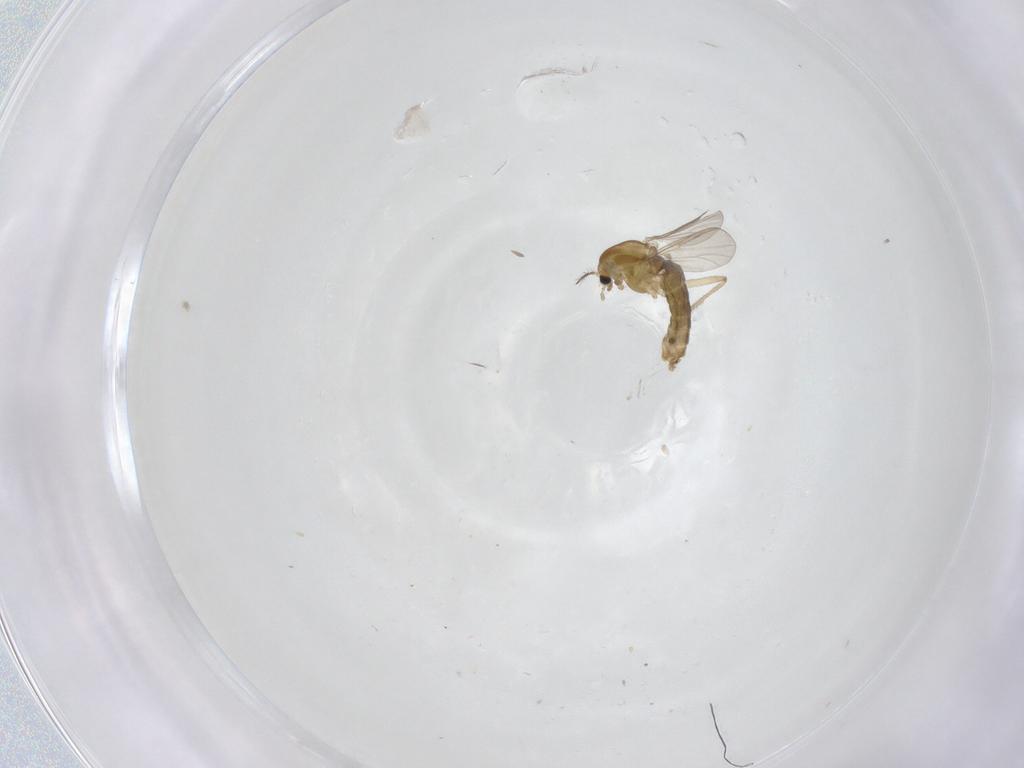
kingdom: Animalia
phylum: Arthropoda
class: Insecta
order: Diptera
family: Chironomidae
